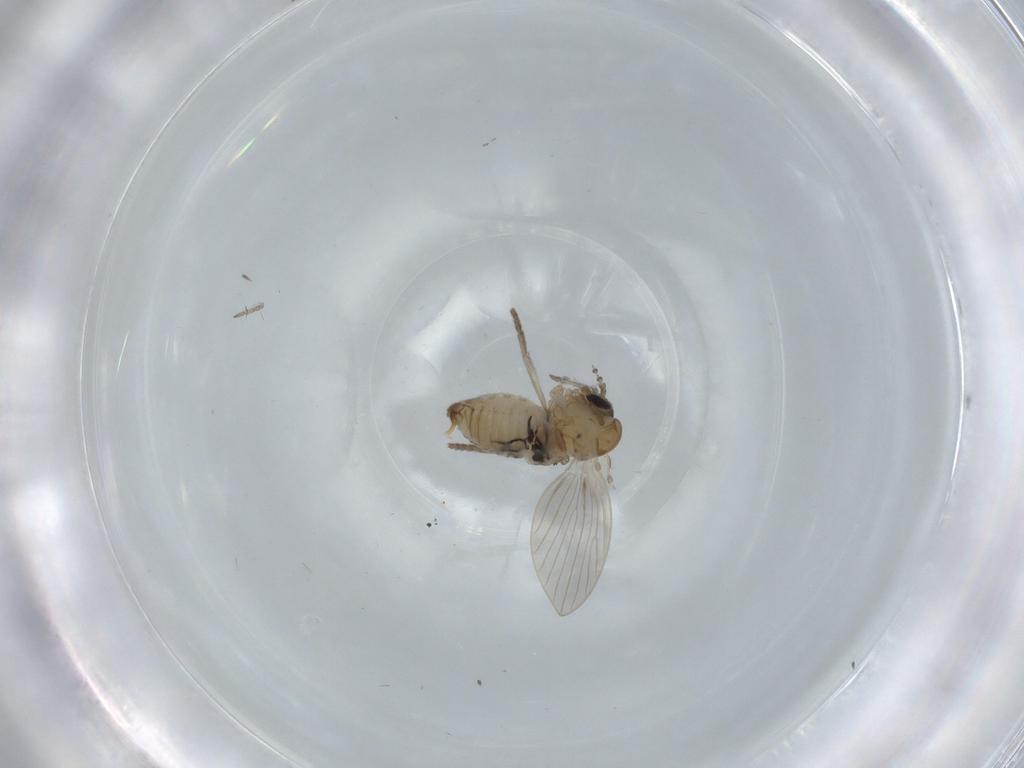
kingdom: Animalia
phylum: Arthropoda
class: Insecta
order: Diptera
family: Psychodidae
